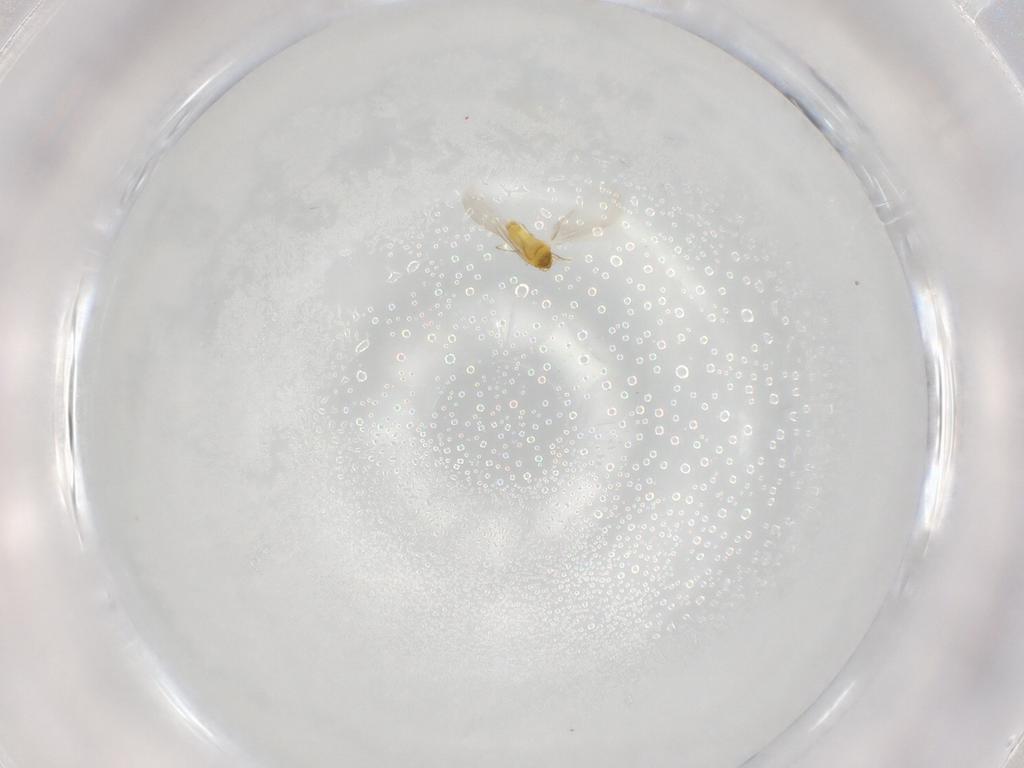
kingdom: Animalia
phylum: Arthropoda
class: Insecta
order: Hemiptera
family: Aleyrodidae
